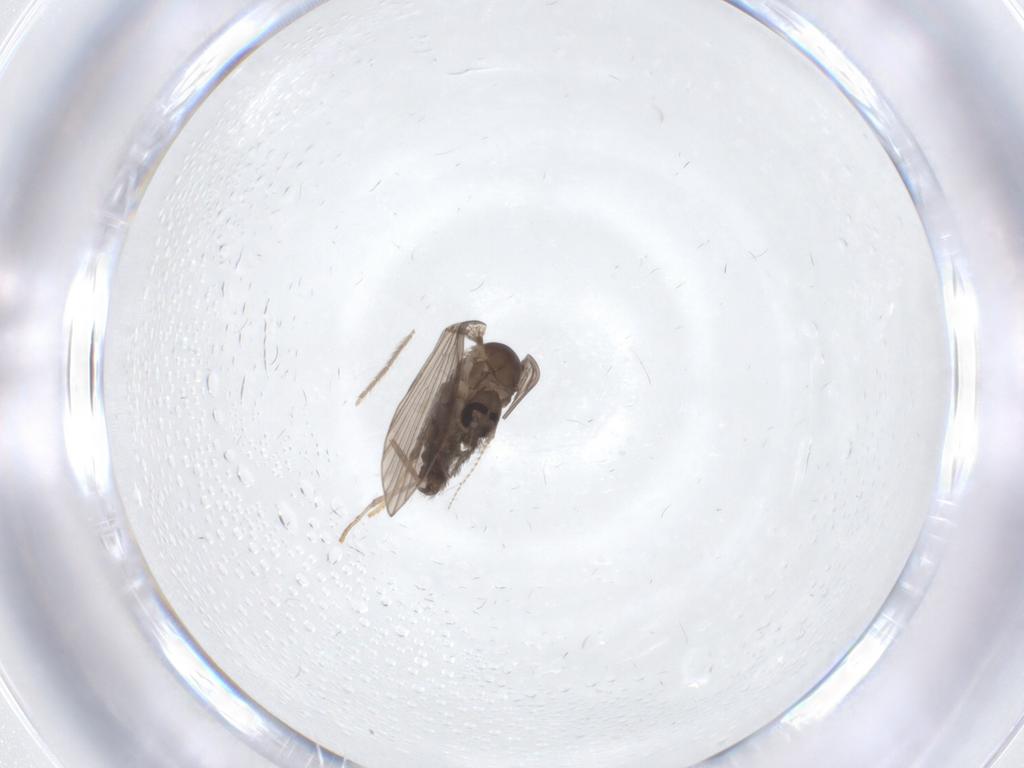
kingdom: Animalia
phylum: Arthropoda
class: Insecta
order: Diptera
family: Psychodidae
